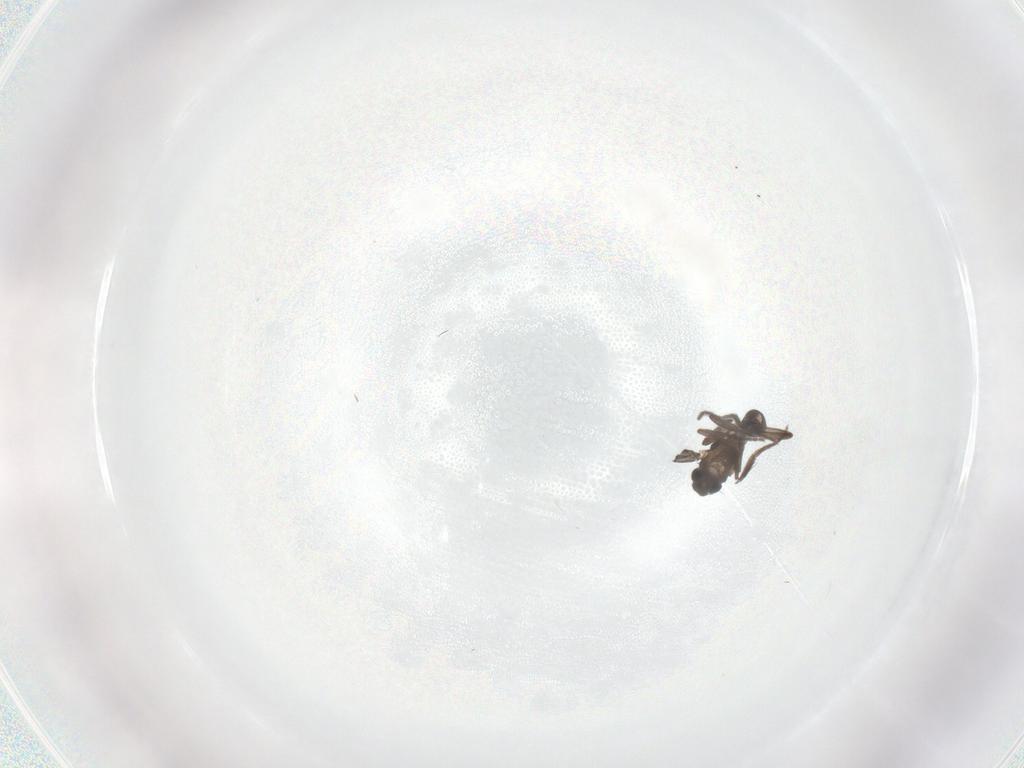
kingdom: Animalia
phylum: Arthropoda
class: Insecta
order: Diptera
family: Phoridae
